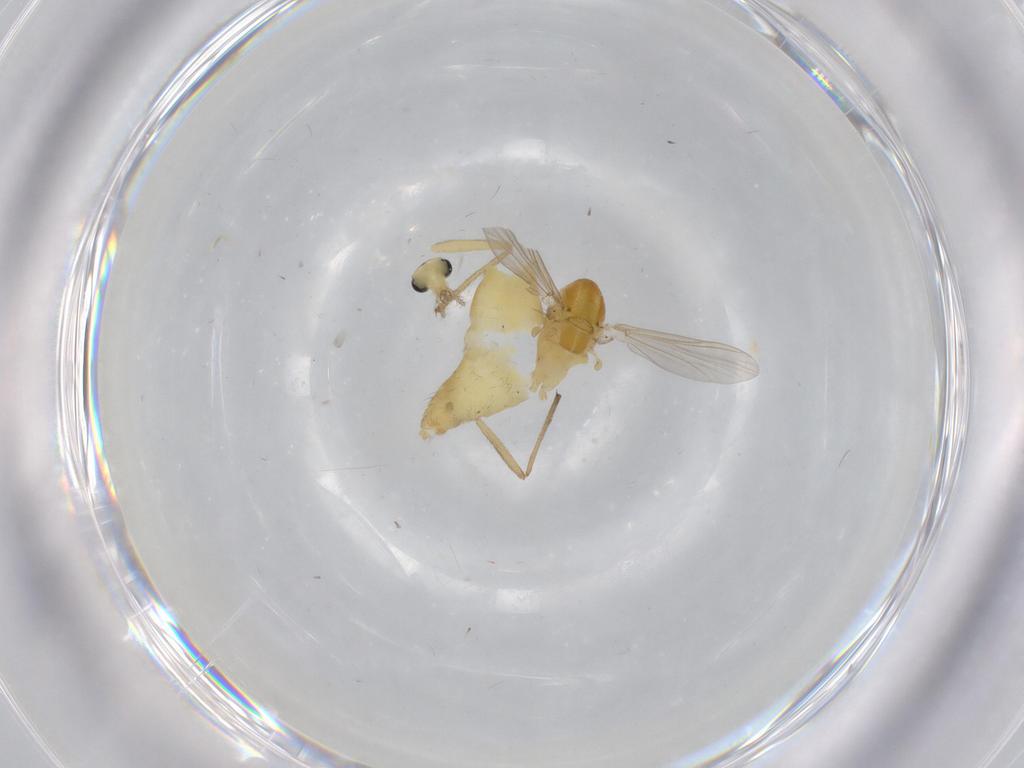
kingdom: Animalia
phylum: Arthropoda
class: Insecta
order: Diptera
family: Chironomidae
